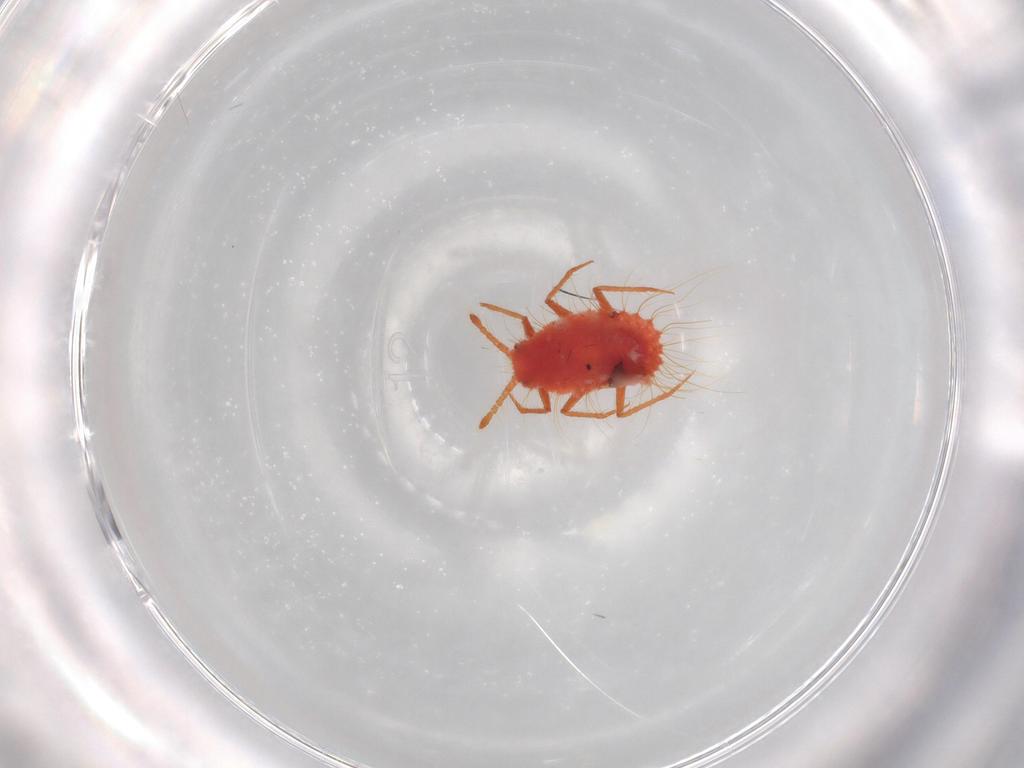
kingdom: Animalia
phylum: Arthropoda
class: Insecta
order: Hemiptera
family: Monophlebidae
